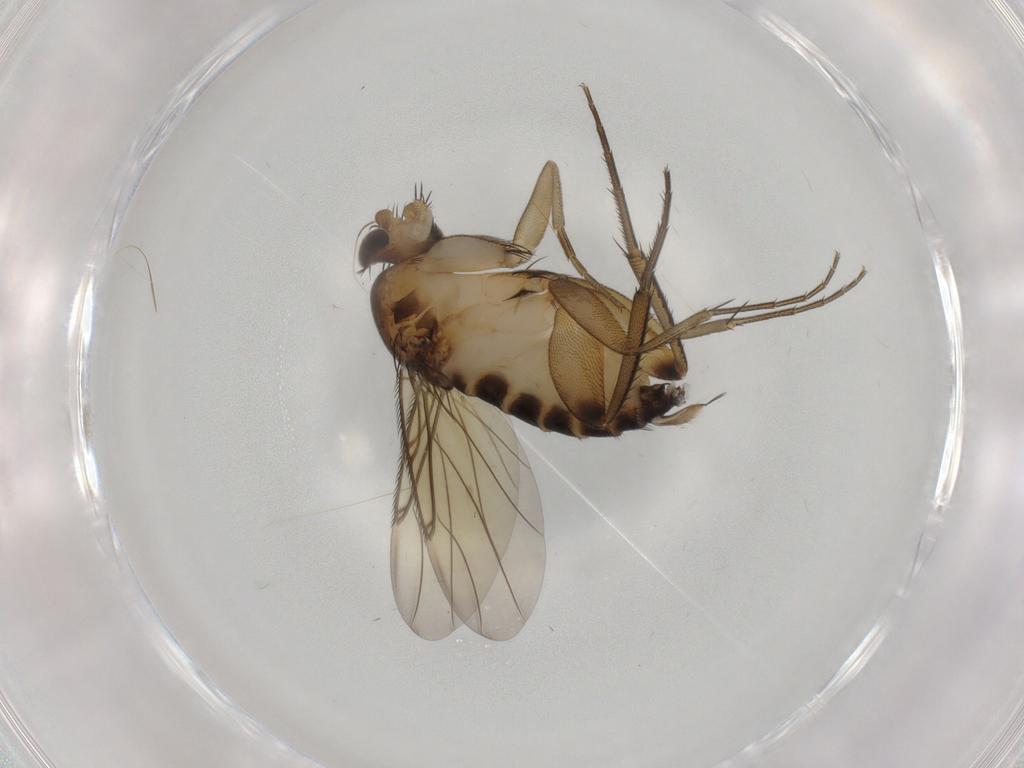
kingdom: Animalia
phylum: Arthropoda
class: Insecta
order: Diptera
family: Phoridae
